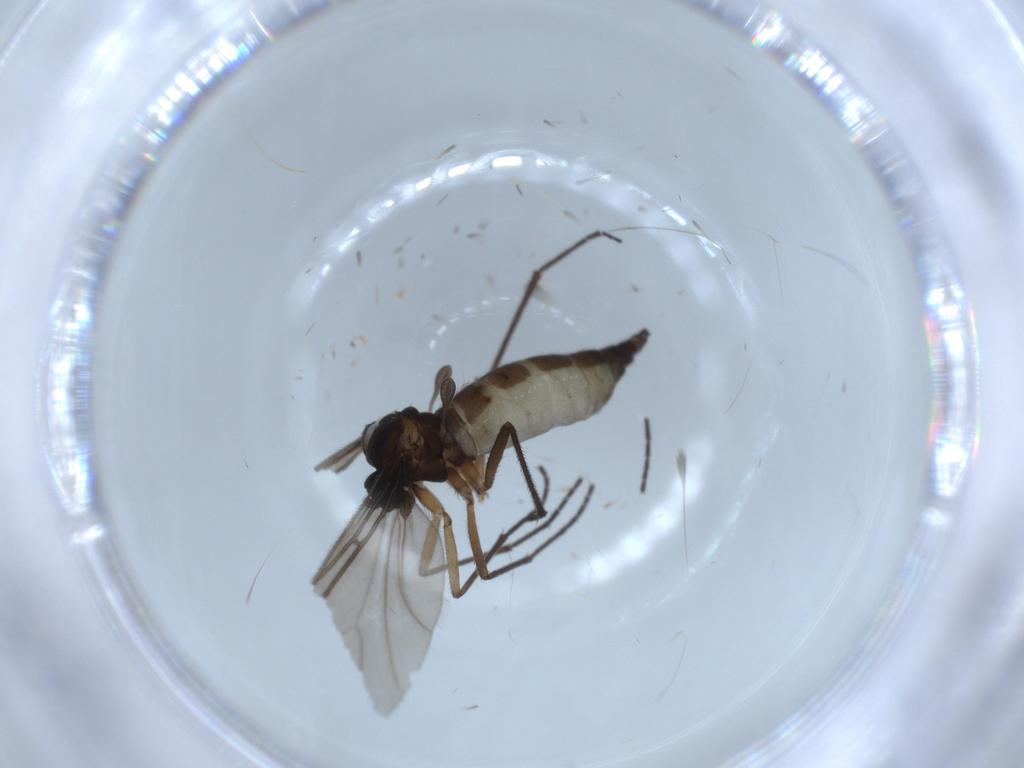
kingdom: Animalia
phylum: Arthropoda
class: Insecta
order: Diptera
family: Sciaridae
